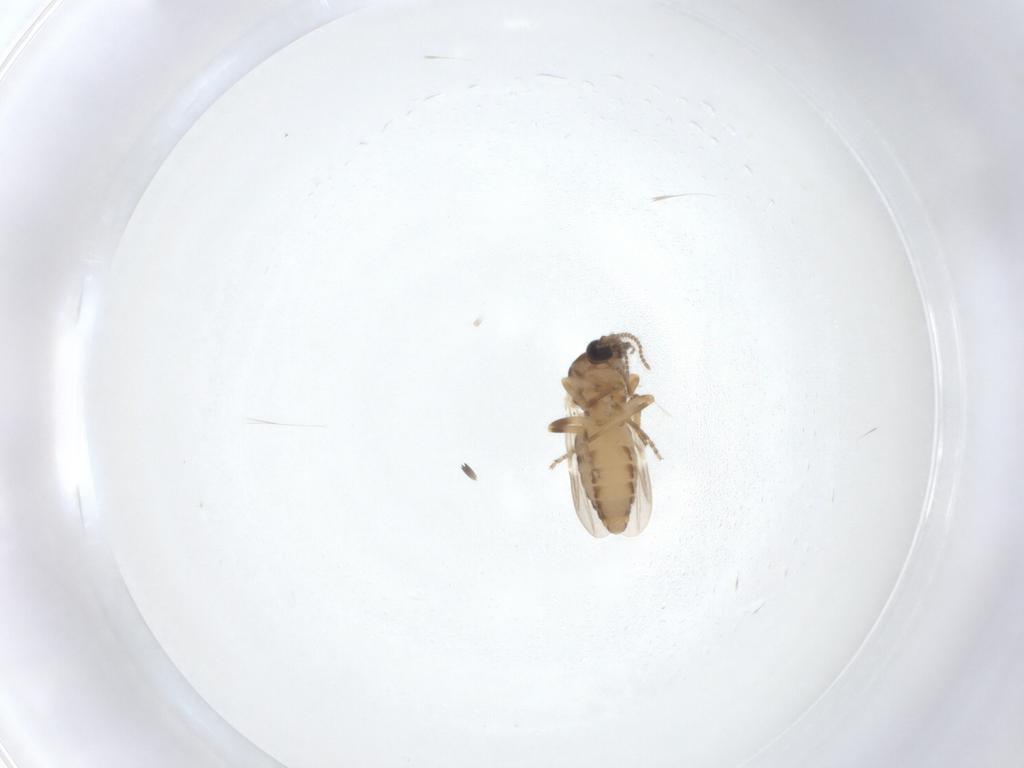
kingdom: Animalia
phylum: Arthropoda
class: Insecta
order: Diptera
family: Ceratopogonidae
